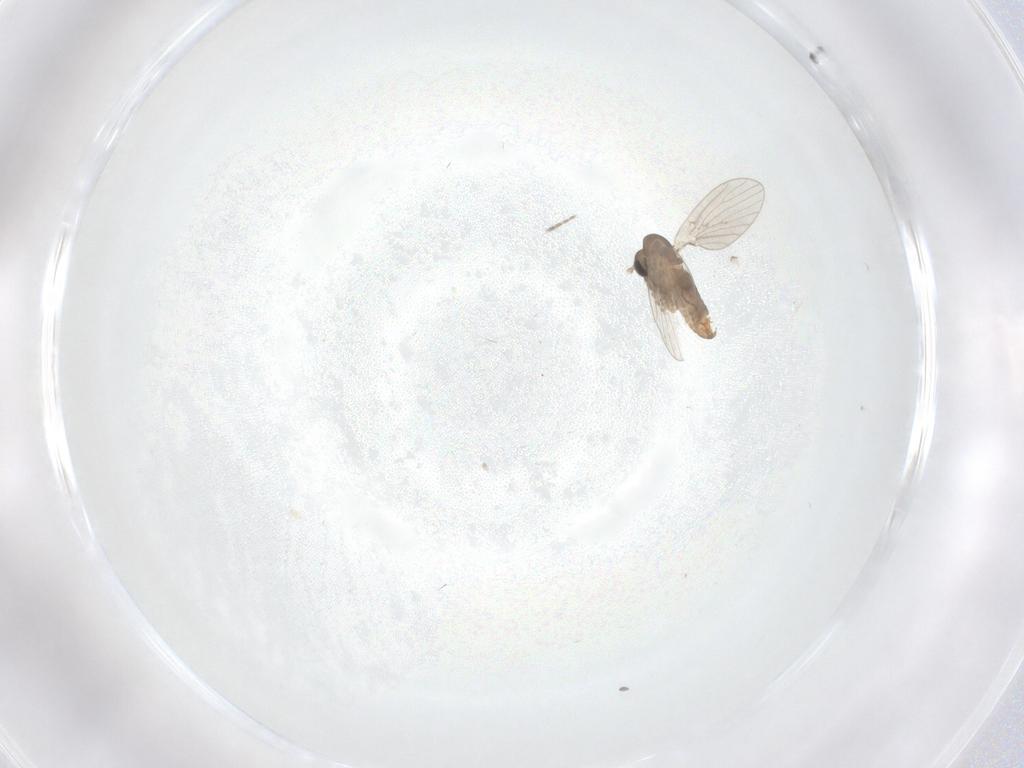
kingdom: Animalia
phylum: Arthropoda
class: Insecta
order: Diptera
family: Psychodidae
